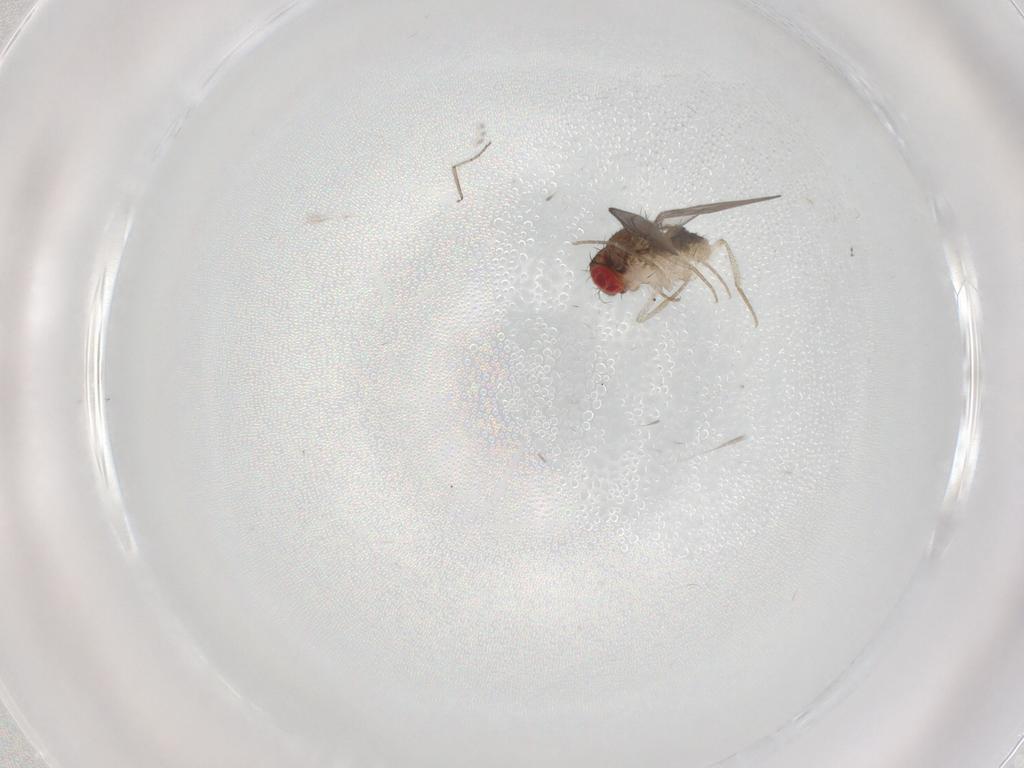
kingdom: Animalia
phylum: Arthropoda
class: Insecta
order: Diptera
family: Drosophilidae
